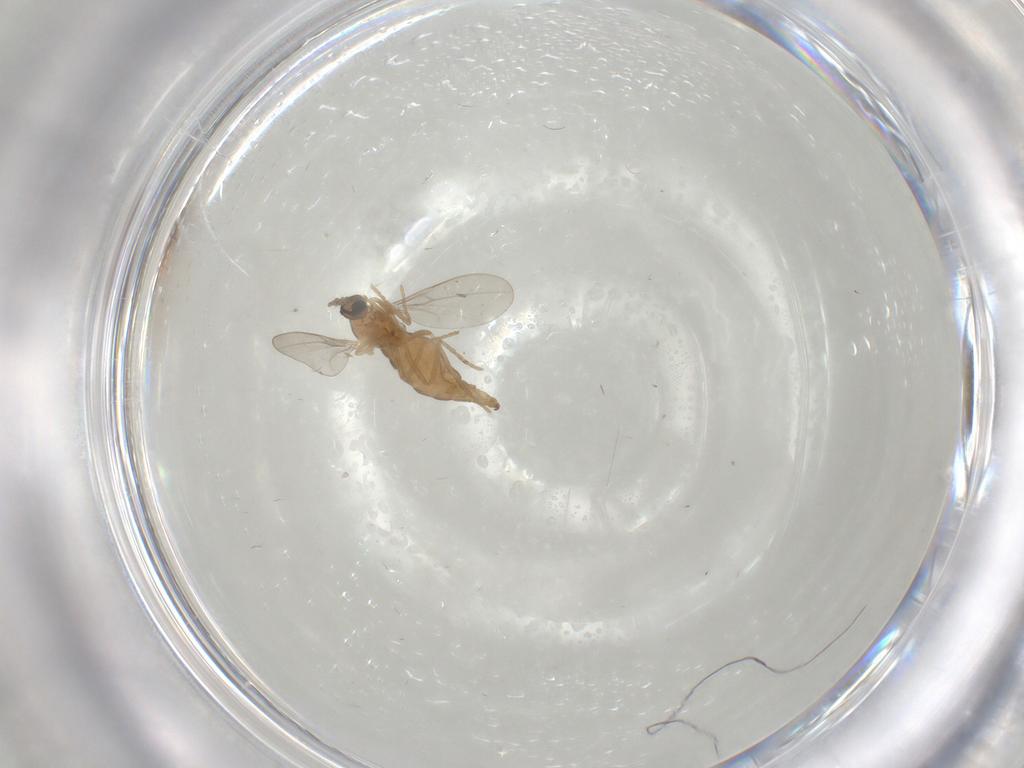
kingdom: Animalia
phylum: Arthropoda
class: Insecta
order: Diptera
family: Cecidomyiidae
